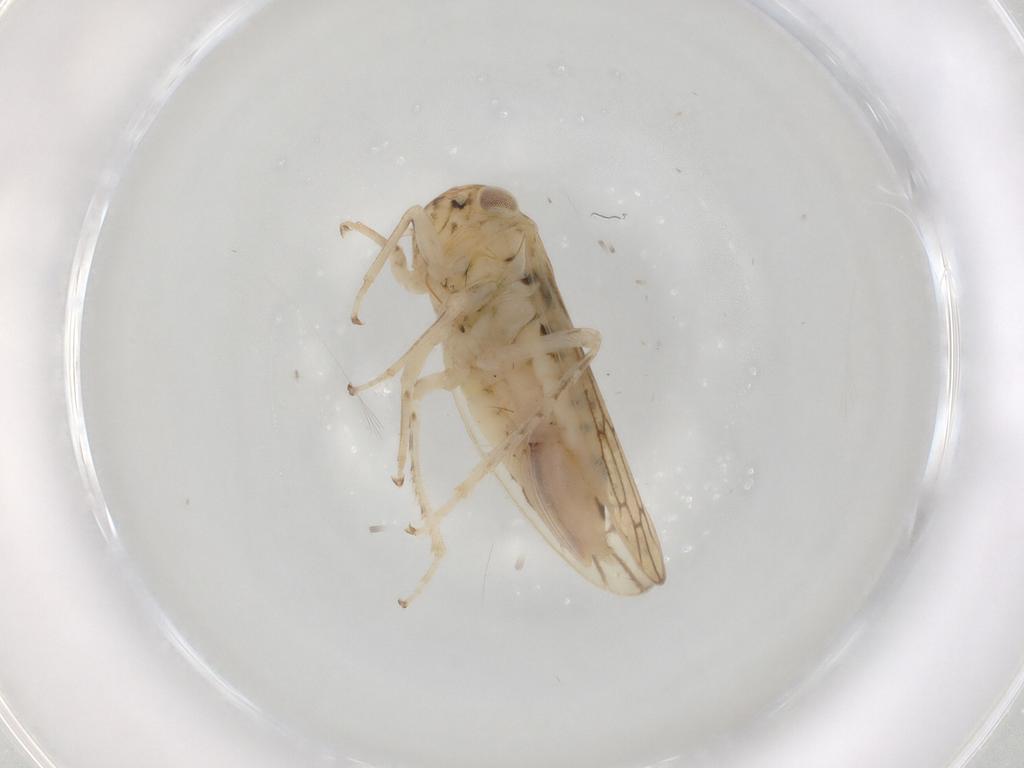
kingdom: Animalia
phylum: Arthropoda
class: Insecta
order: Hemiptera
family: Cicadellidae
